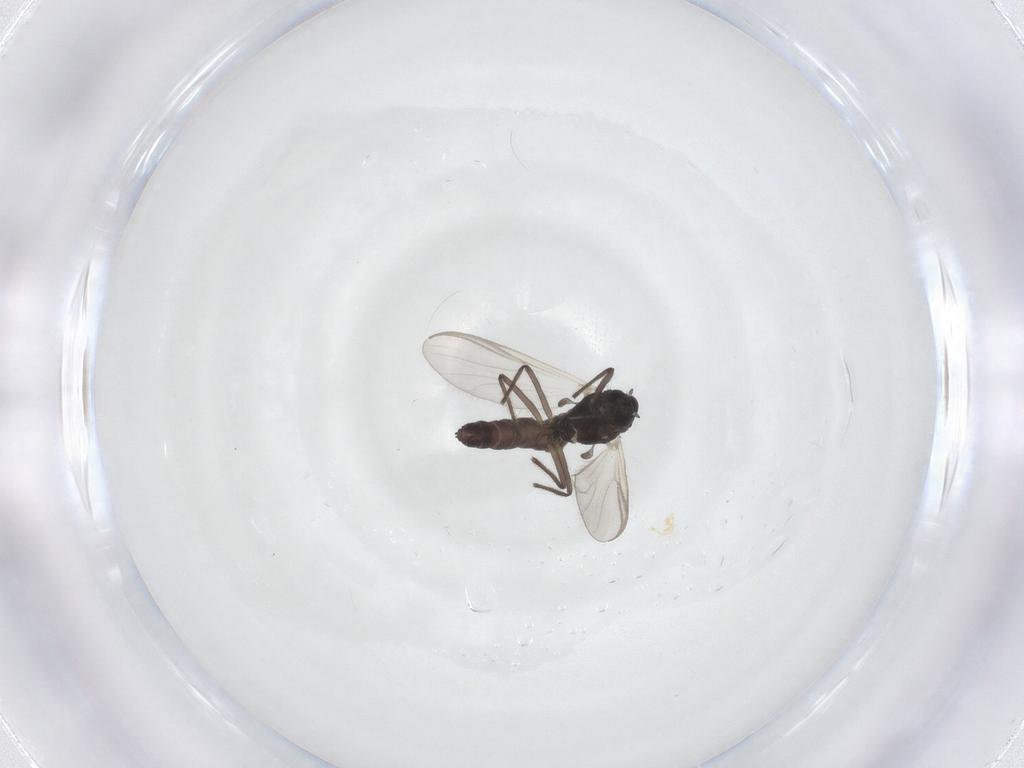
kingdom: Animalia
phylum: Arthropoda
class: Insecta
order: Diptera
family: Chironomidae
